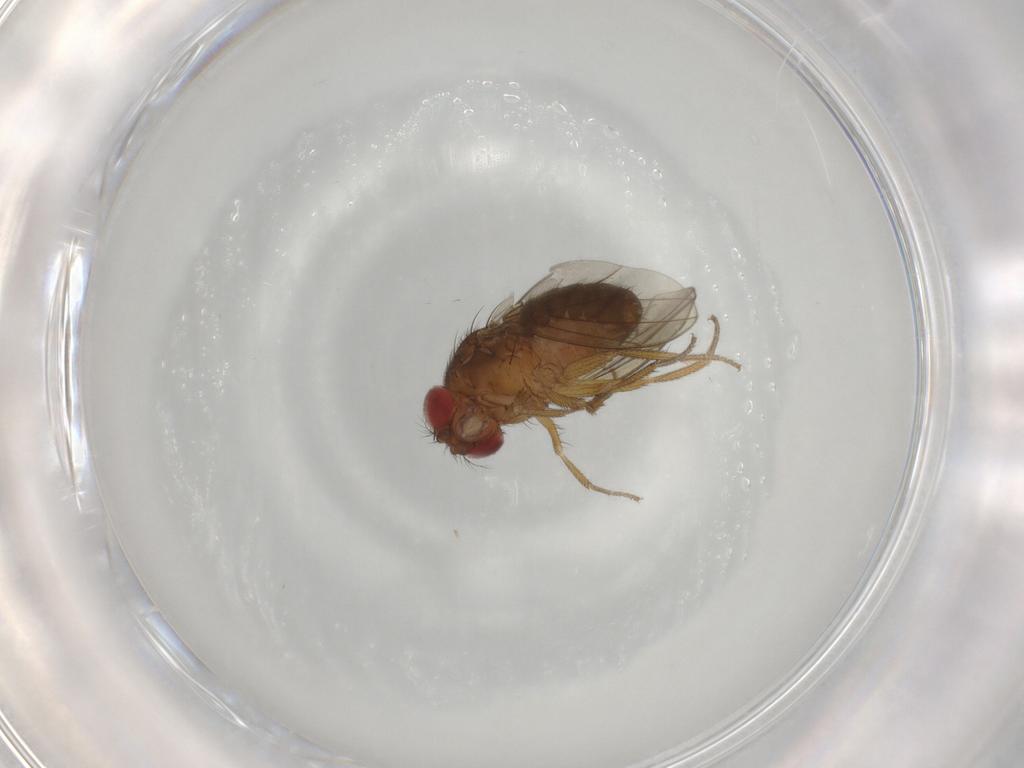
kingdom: Animalia
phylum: Arthropoda
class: Insecta
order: Diptera
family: Drosophilidae
